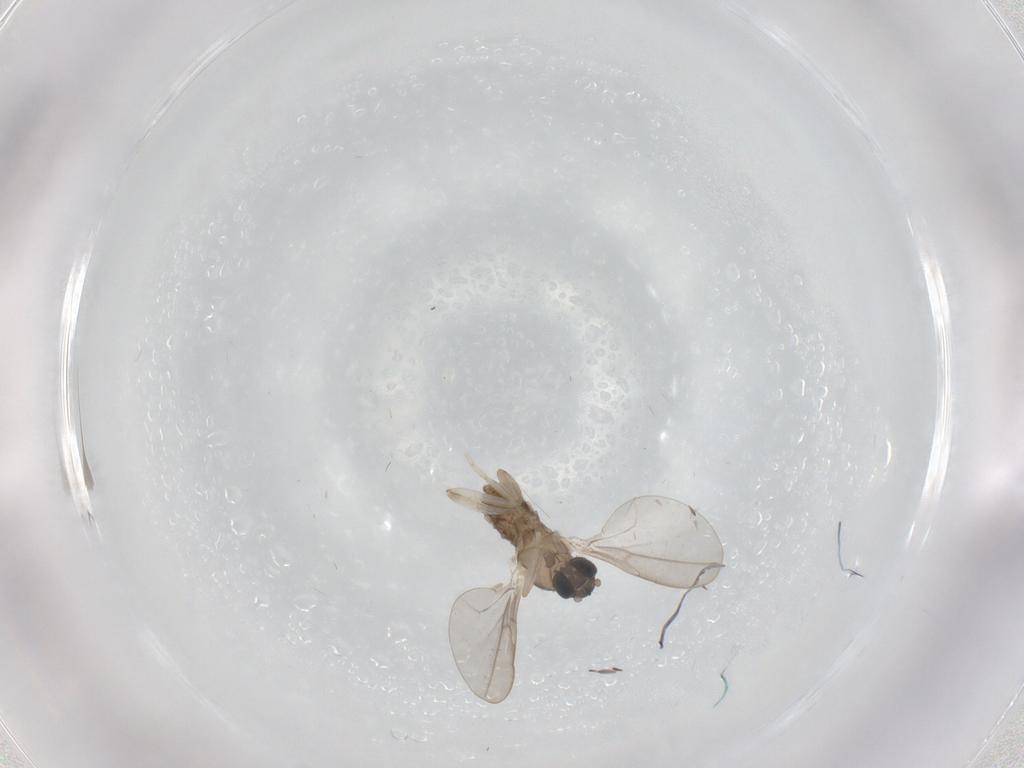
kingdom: Animalia
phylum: Arthropoda
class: Insecta
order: Diptera
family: Cecidomyiidae
